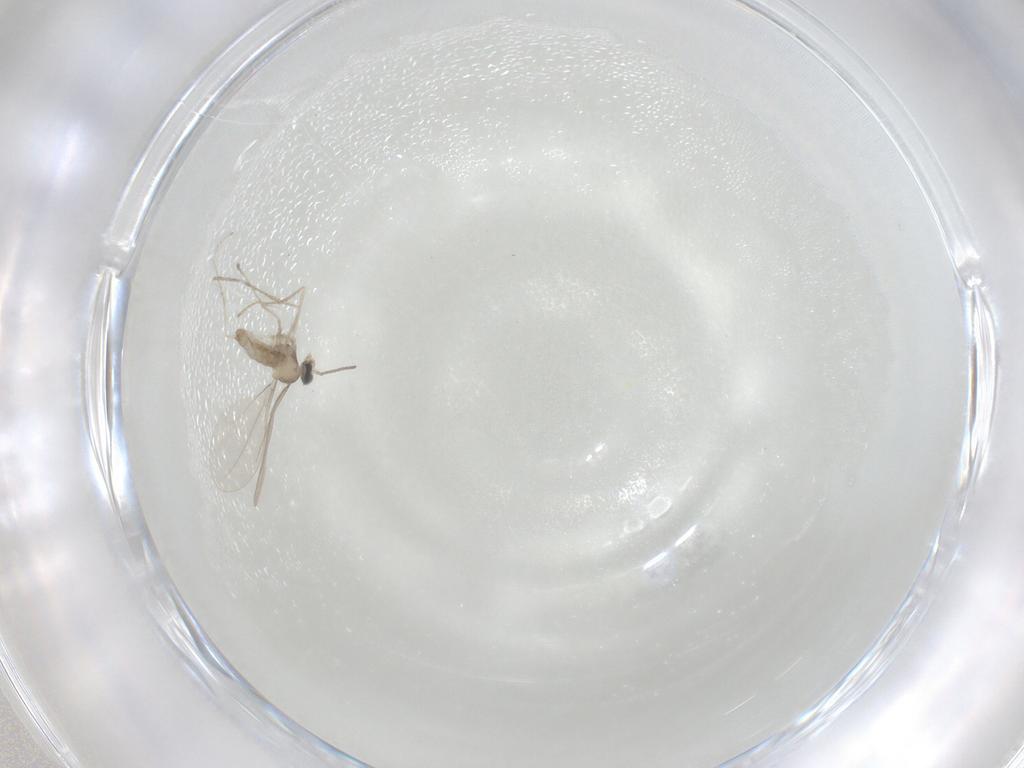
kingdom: Animalia
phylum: Arthropoda
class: Insecta
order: Diptera
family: Cecidomyiidae
